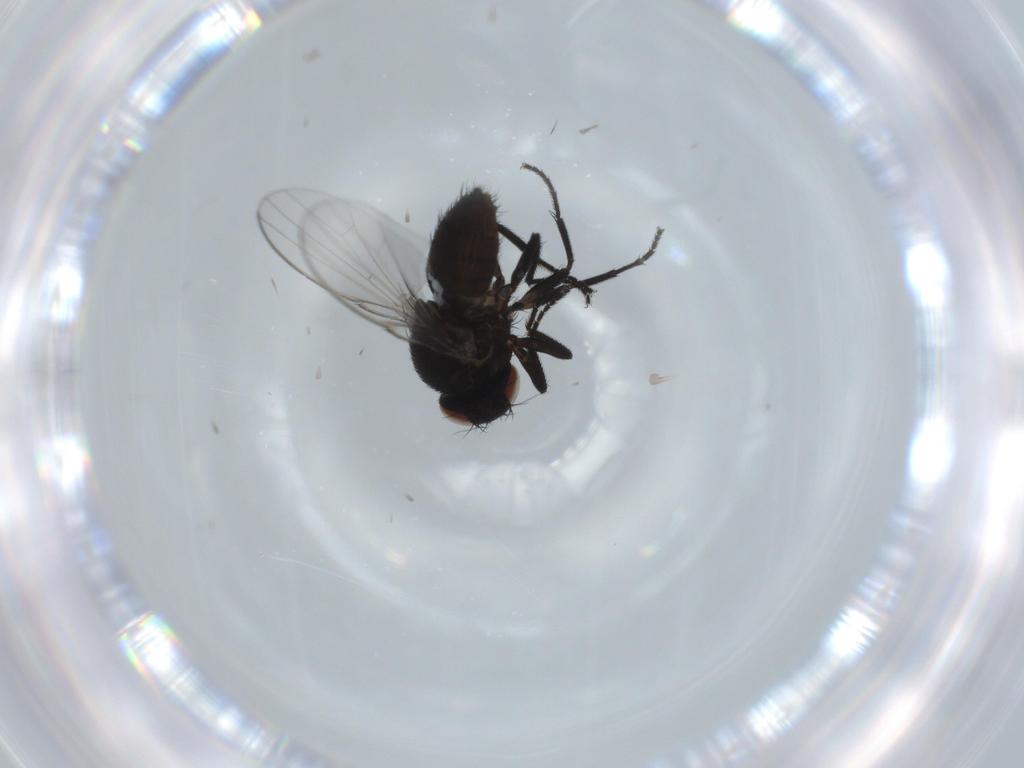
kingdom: Animalia
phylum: Arthropoda
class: Insecta
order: Diptera
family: Milichiidae
